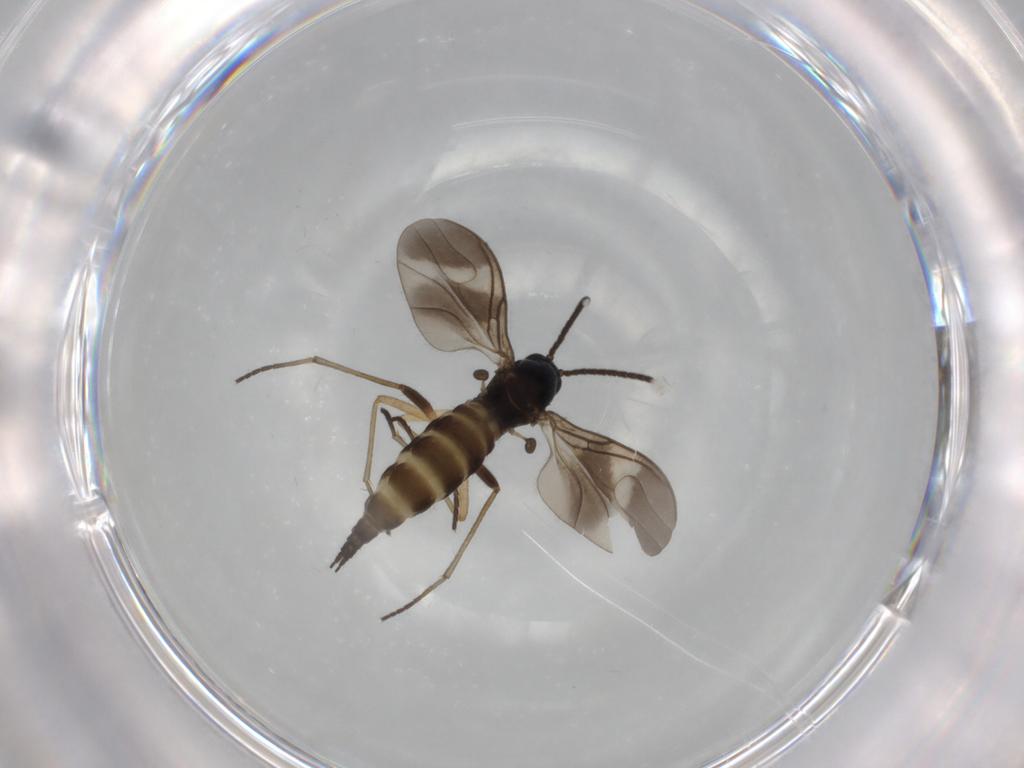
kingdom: Animalia
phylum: Arthropoda
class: Insecta
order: Diptera
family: Sciaridae
